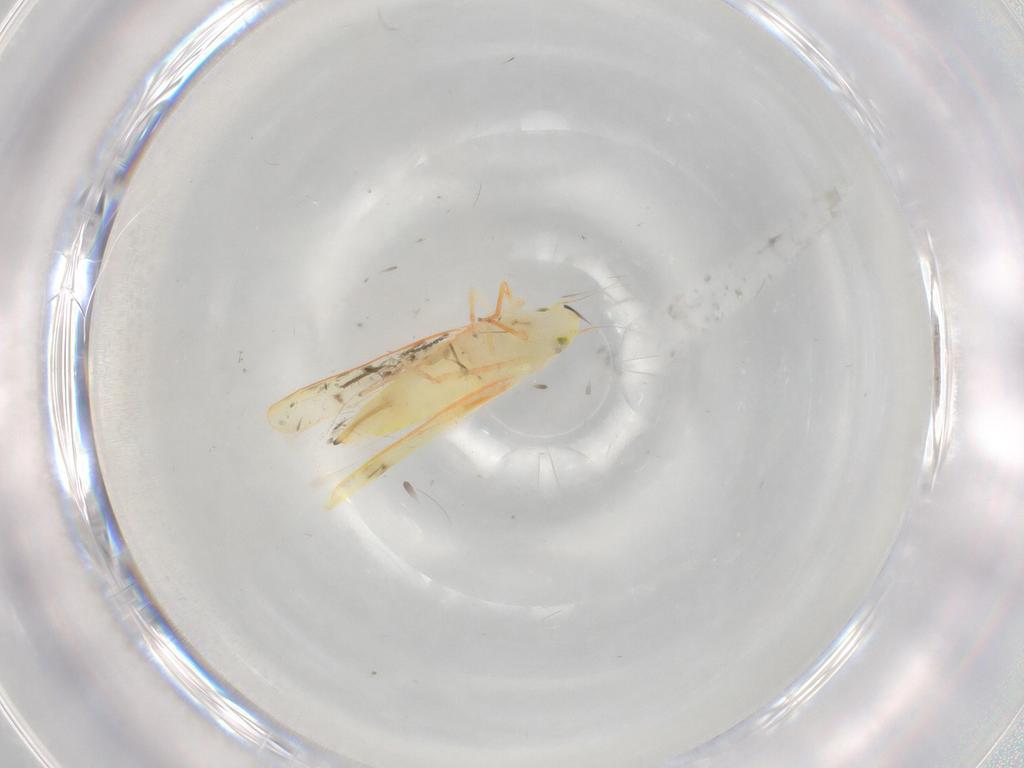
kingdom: Animalia
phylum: Arthropoda
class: Insecta
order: Hemiptera
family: Cicadellidae
